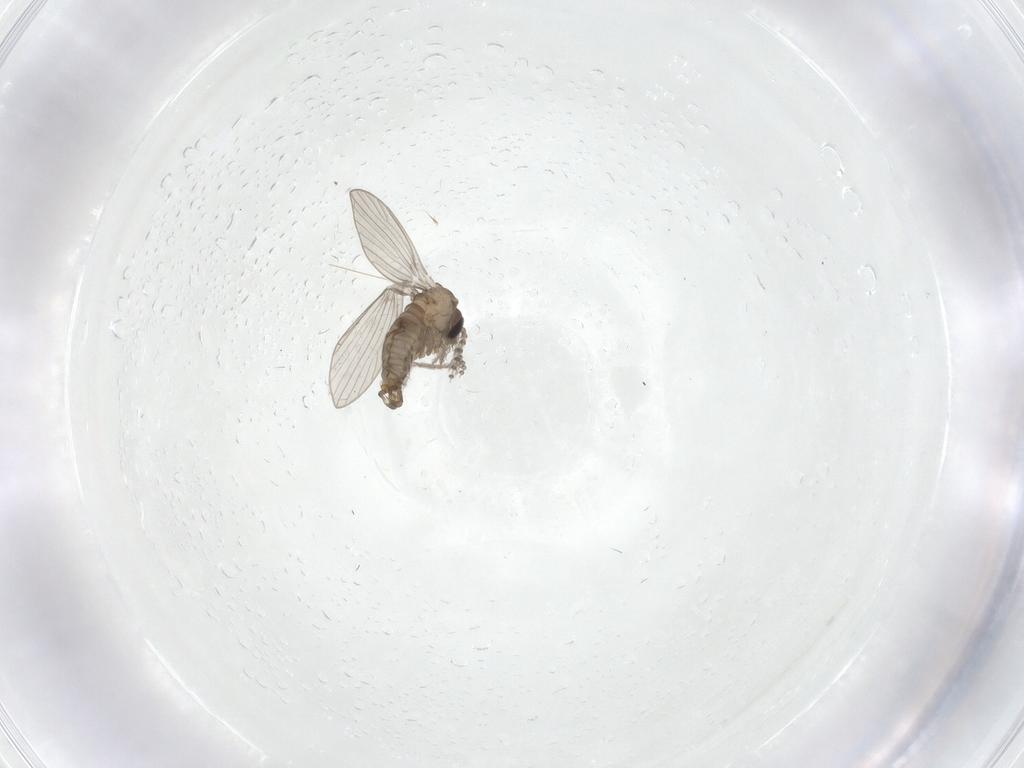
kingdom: Animalia
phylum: Arthropoda
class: Insecta
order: Diptera
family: Psychodidae
